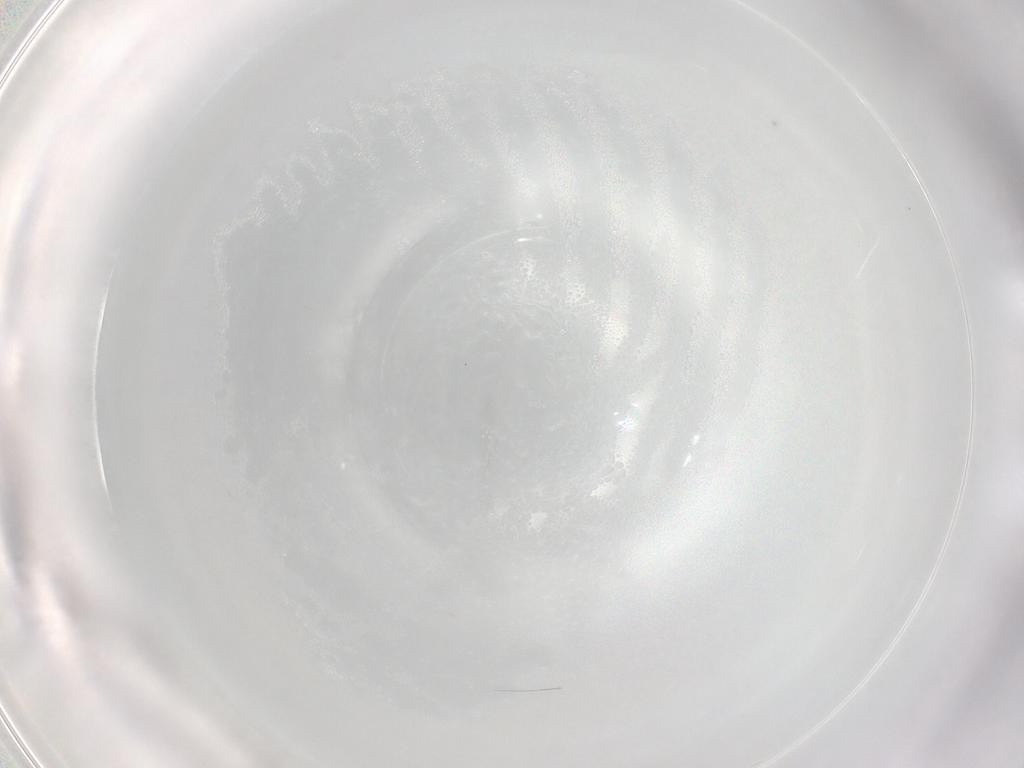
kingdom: Animalia
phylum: Arthropoda
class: Arachnida
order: Trombidiformes
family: Lebertiidae
